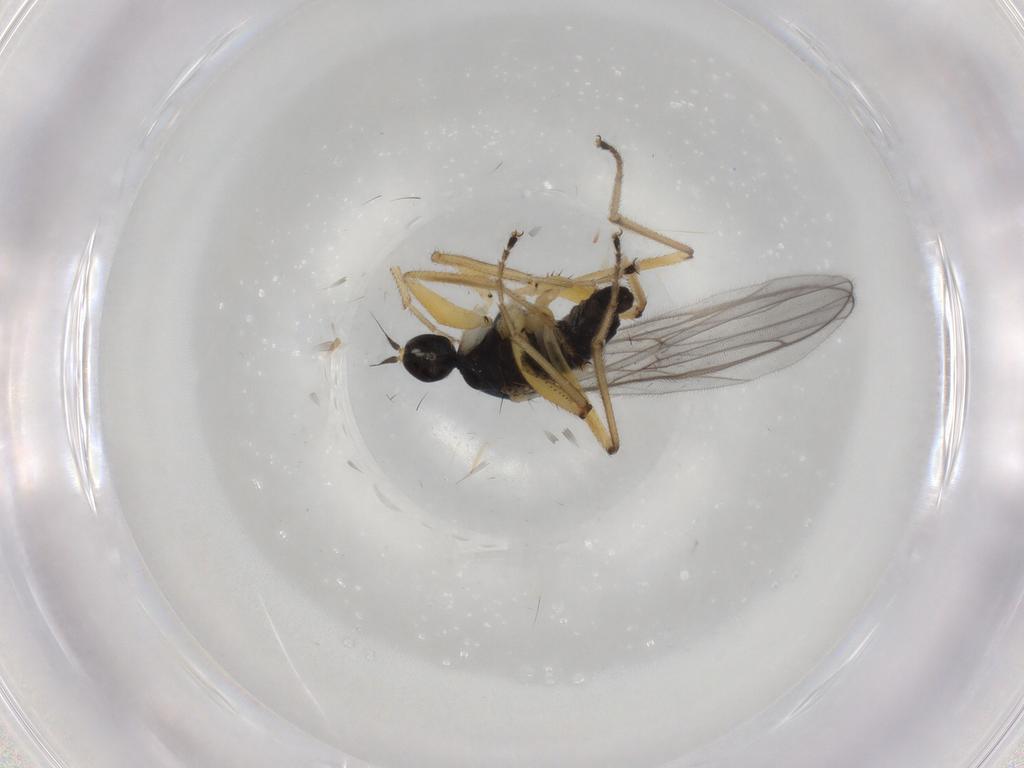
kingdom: Animalia
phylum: Arthropoda
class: Insecta
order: Diptera
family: Hybotidae
